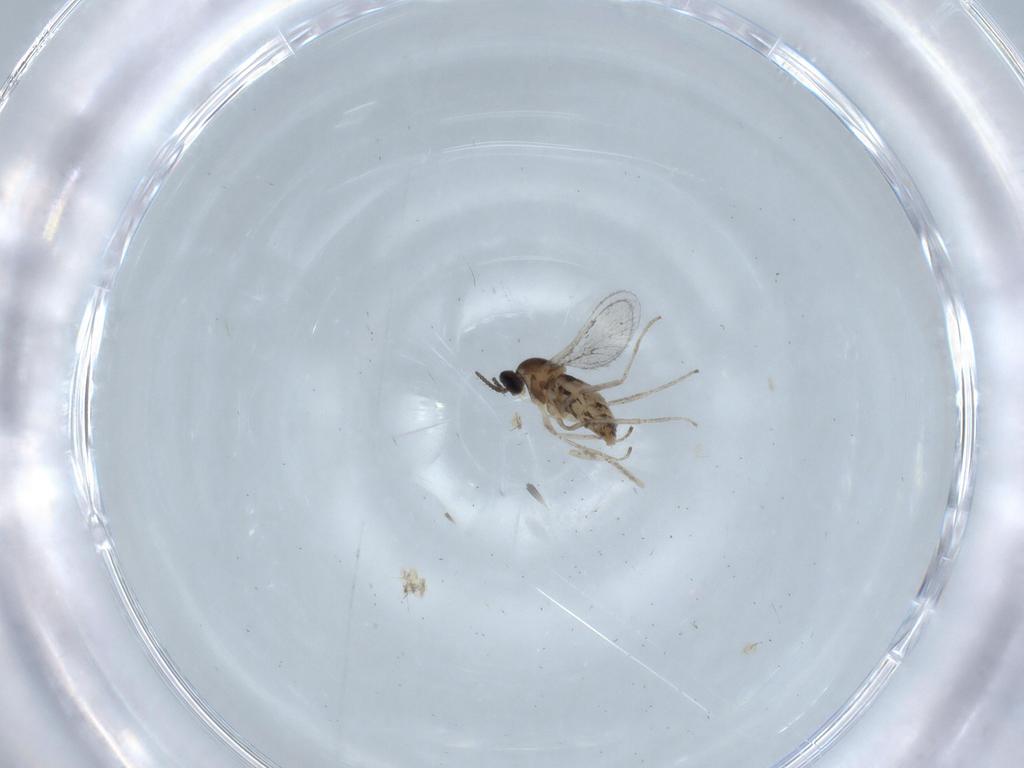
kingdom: Animalia
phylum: Arthropoda
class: Insecta
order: Diptera
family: Cecidomyiidae
